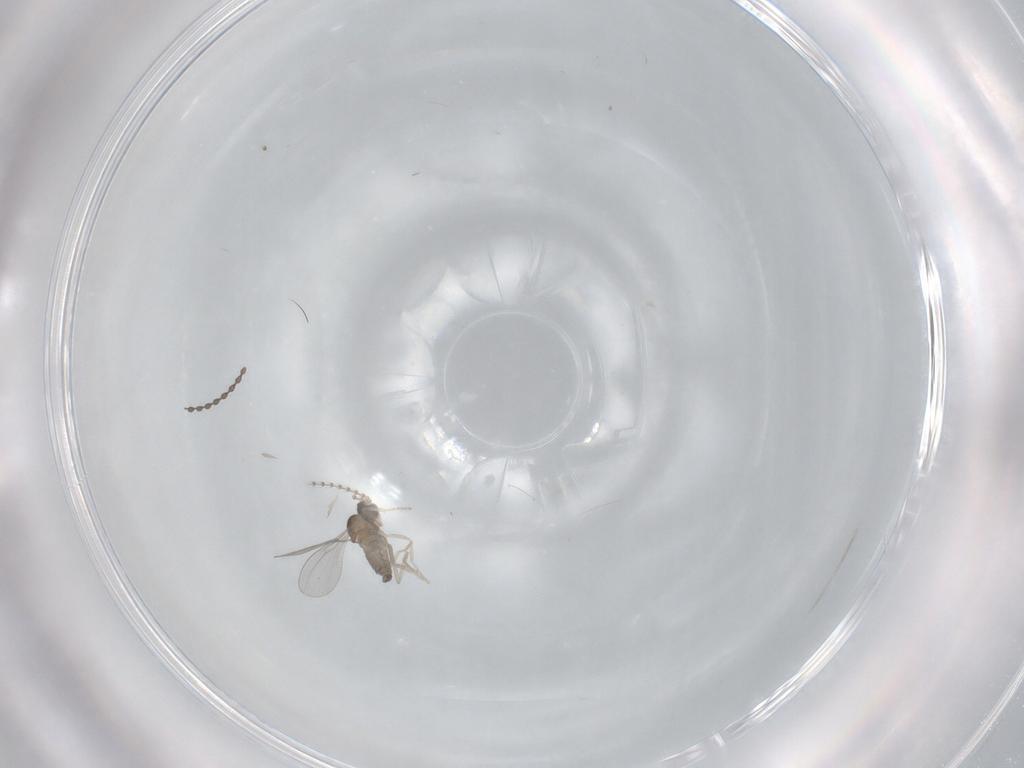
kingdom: Animalia
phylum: Arthropoda
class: Insecta
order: Diptera
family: Cecidomyiidae
